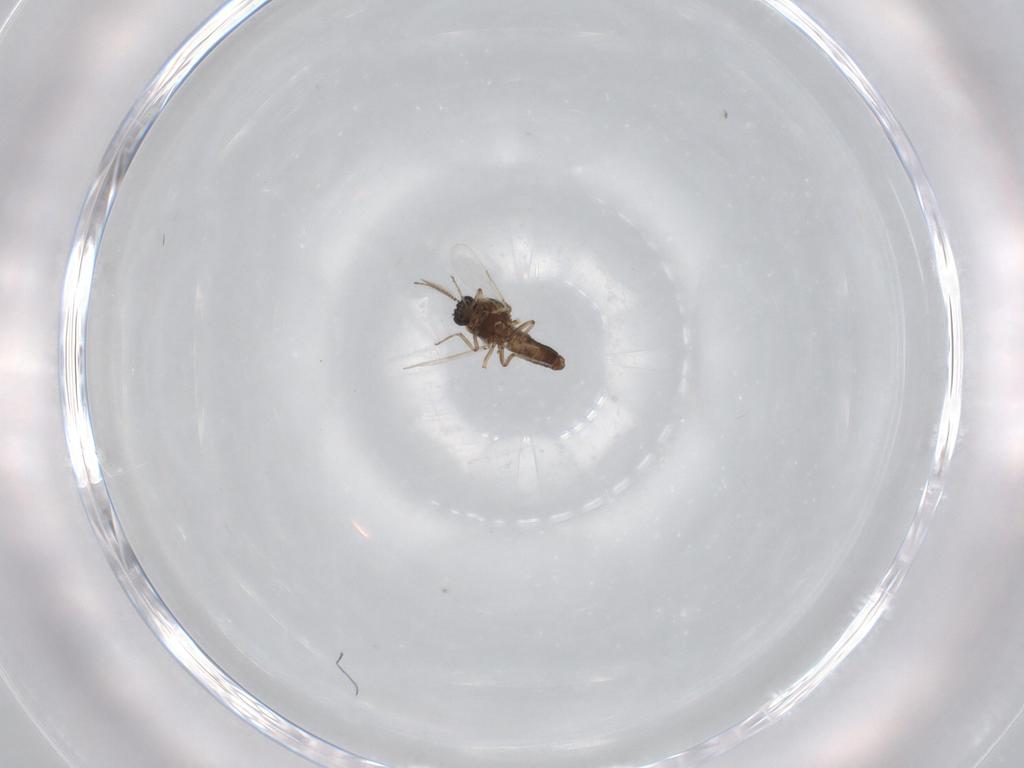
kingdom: Animalia
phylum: Arthropoda
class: Insecta
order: Diptera
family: Ceratopogonidae
